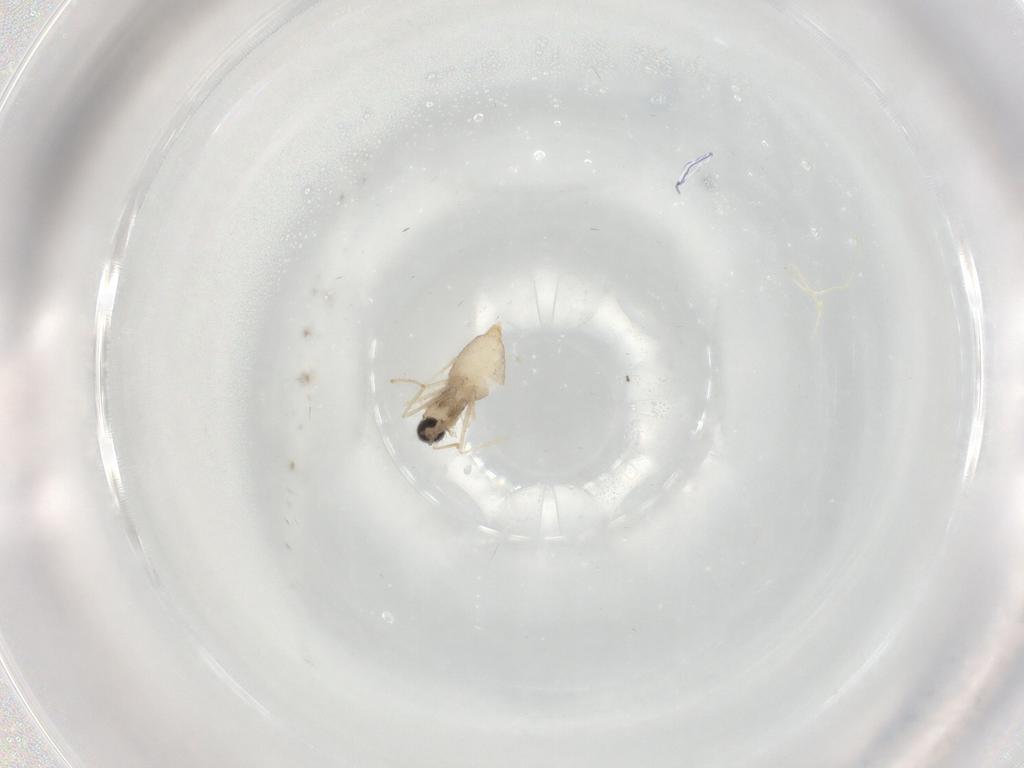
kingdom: Animalia
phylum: Arthropoda
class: Insecta
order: Diptera
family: Cecidomyiidae
